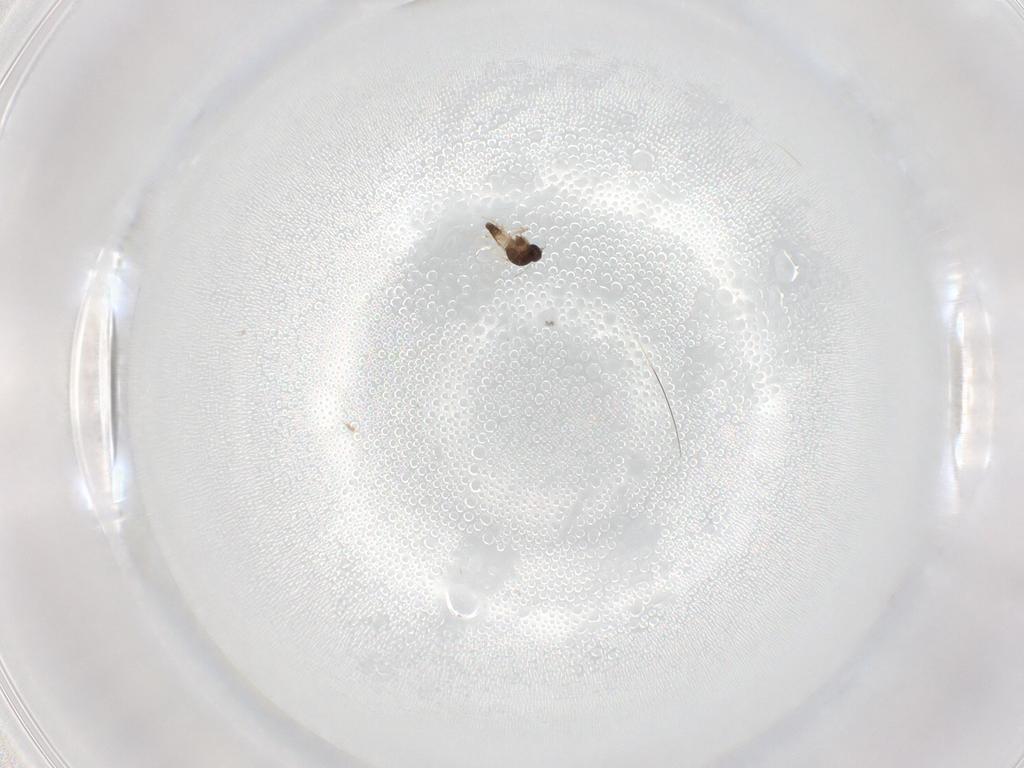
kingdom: Animalia
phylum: Arthropoda
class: Insecta
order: Diptera
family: Ceratopogonidae
